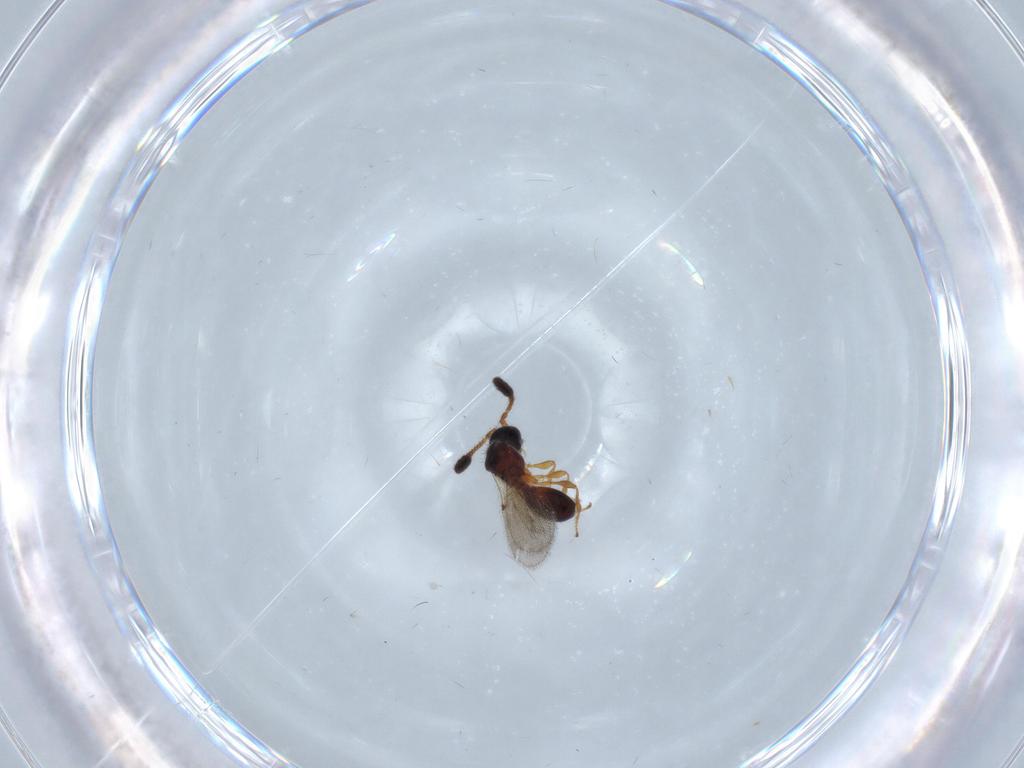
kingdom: Animalia
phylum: Arthropoda
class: Insecta
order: Hymenoptera
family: Diapriidae
